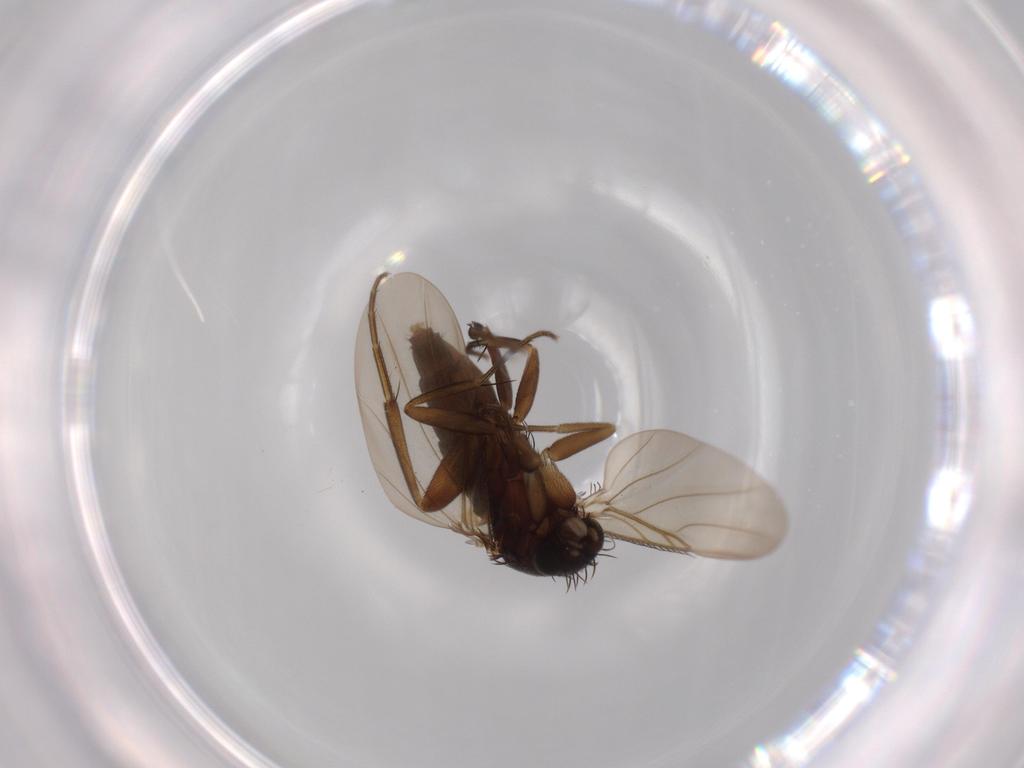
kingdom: Animalia
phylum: Arthropoda
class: Insecta
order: Diptera
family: Phoridae
